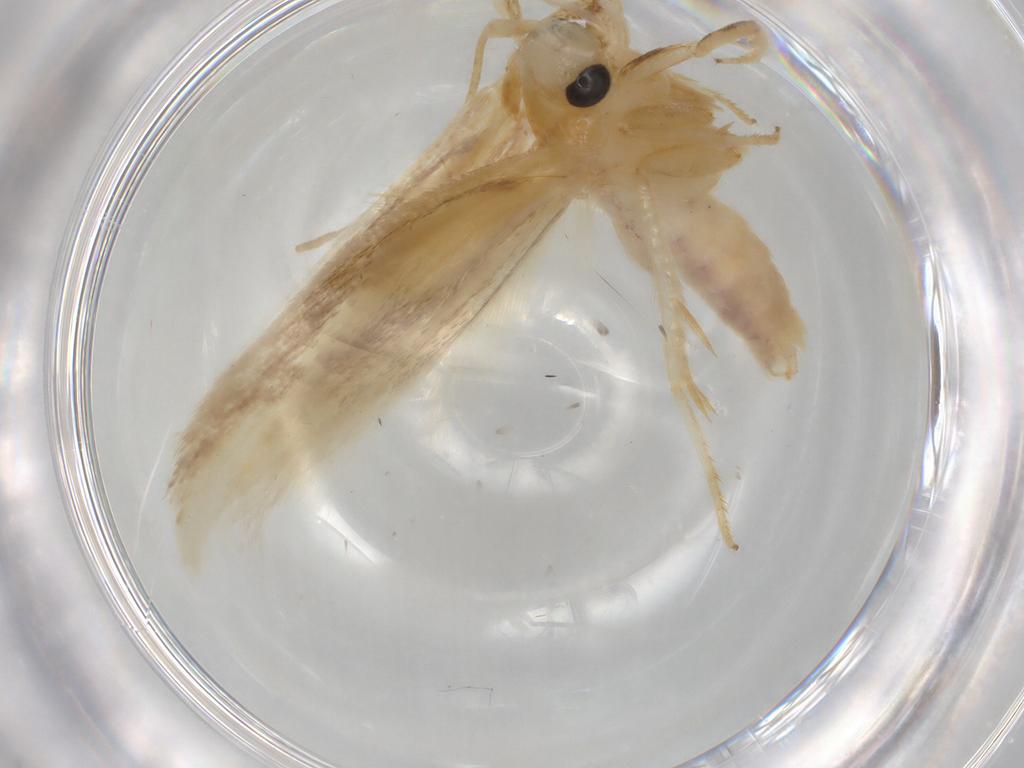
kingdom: Animalia
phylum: Arthropoda
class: Insecta
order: Lepidoptera
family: Geometridae
